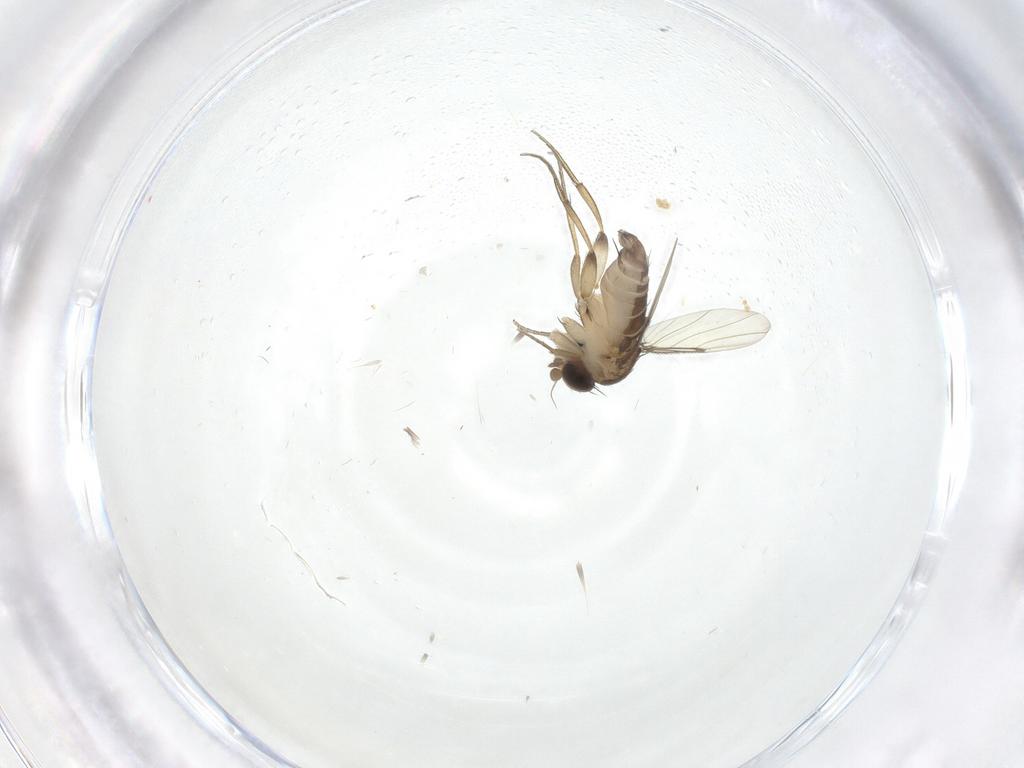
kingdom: Animalia
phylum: Arthropoda
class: Insecta
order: Diptera
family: Phoridae
